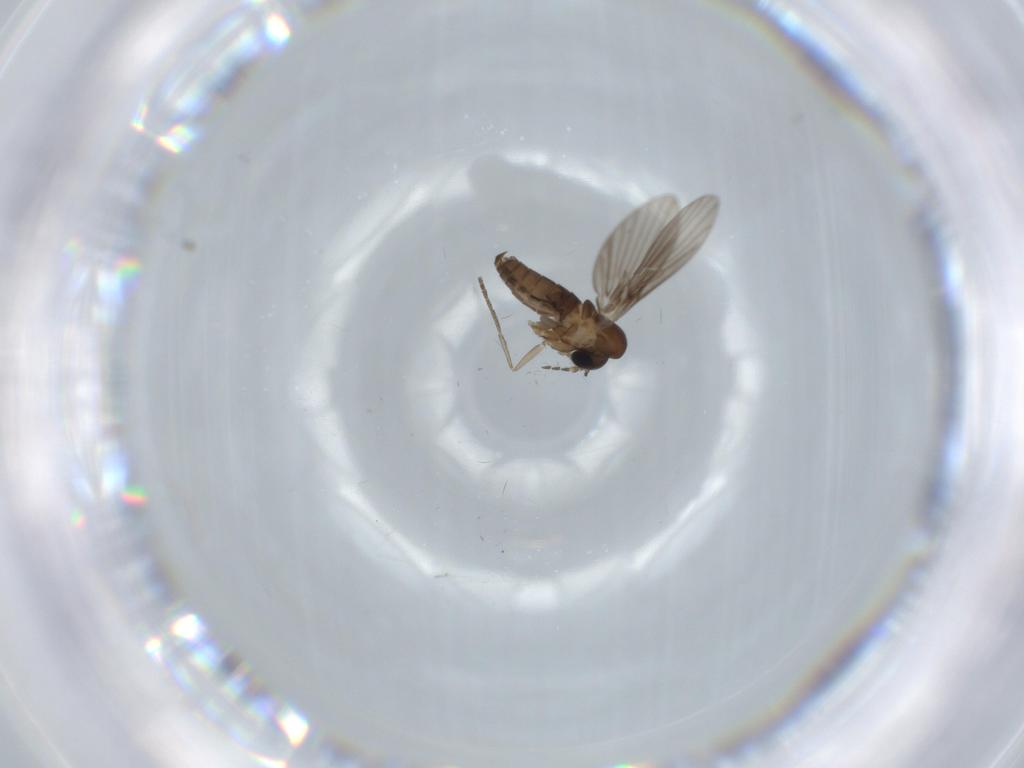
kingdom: Animalia
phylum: Arthropoda
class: Insecta
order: Diptera
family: Psychodidae
